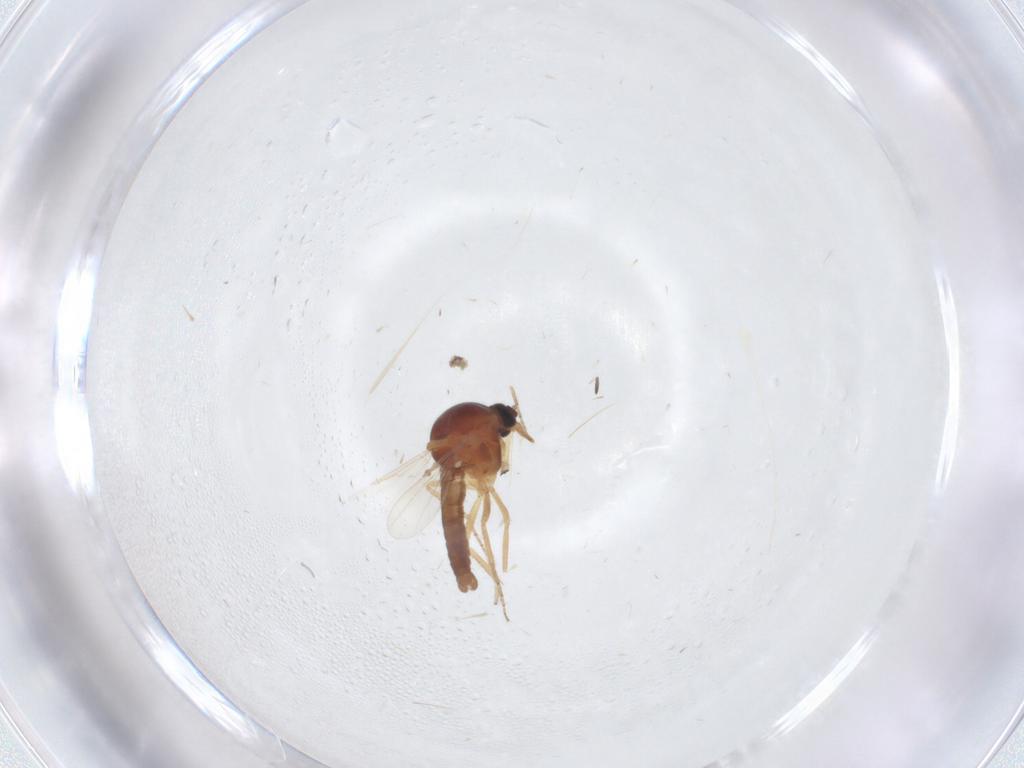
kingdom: Animalia
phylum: Arthropoda
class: Insecta
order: Diptera
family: Ceratopogonidae
